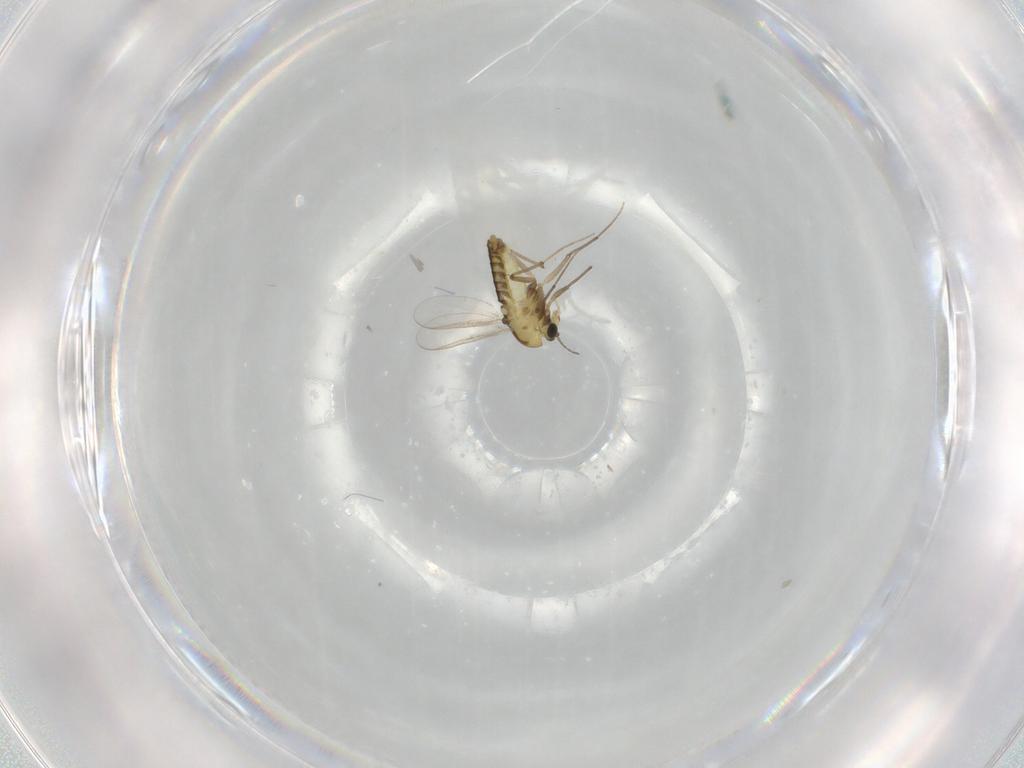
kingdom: Animalia
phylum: Arthropoda
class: Insecta
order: Diptera
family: Chironomidae
